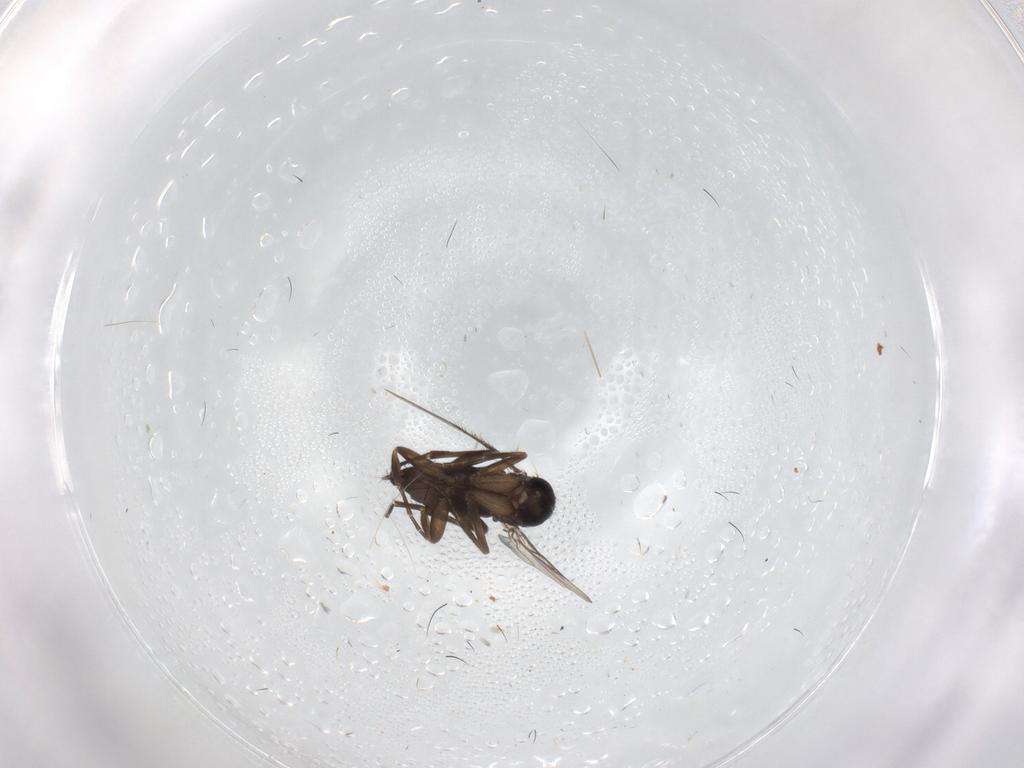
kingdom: Animalia
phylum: Arthropoda
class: Insecta
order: Diptera
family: Phoridae
